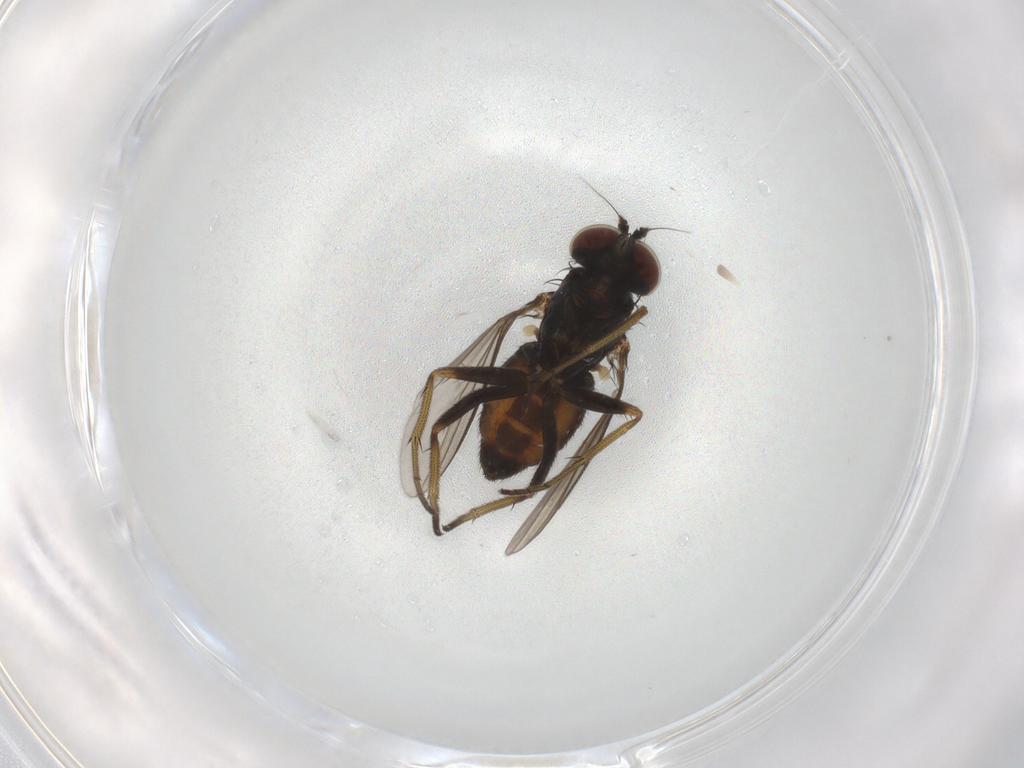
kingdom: Animalia
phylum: Arthropoda
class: Insecta
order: Diptera
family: Dolichopodidae
